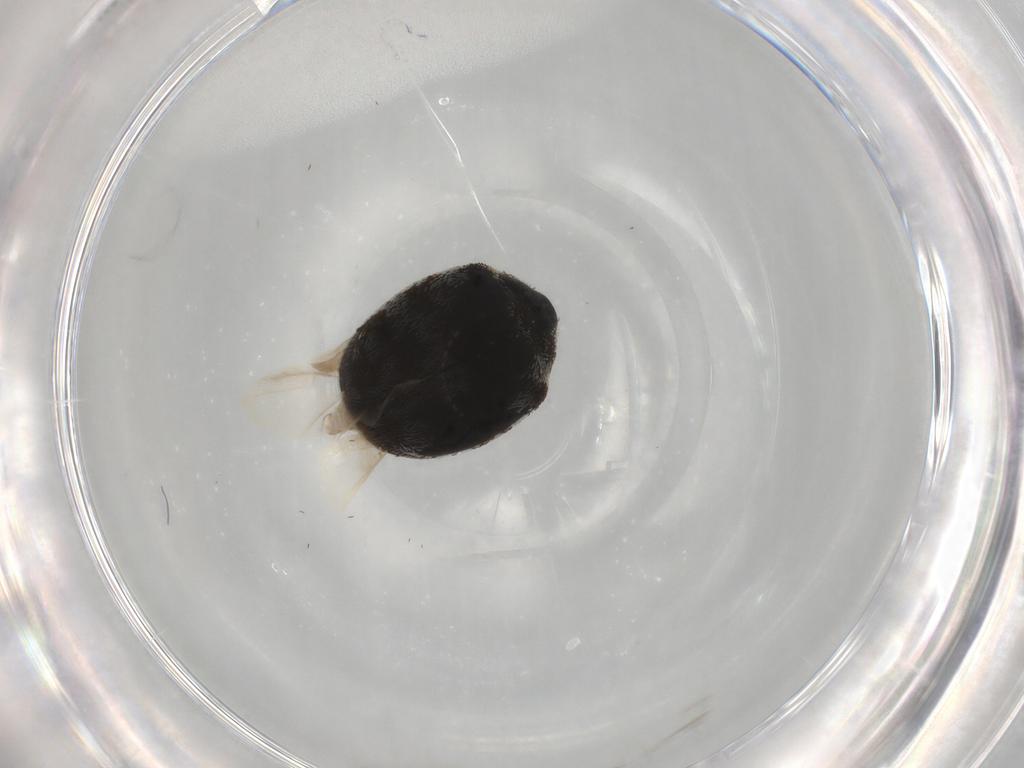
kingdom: Animalia
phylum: Arthropoda
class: Insecta
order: Coleoptera
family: Dermestidae
